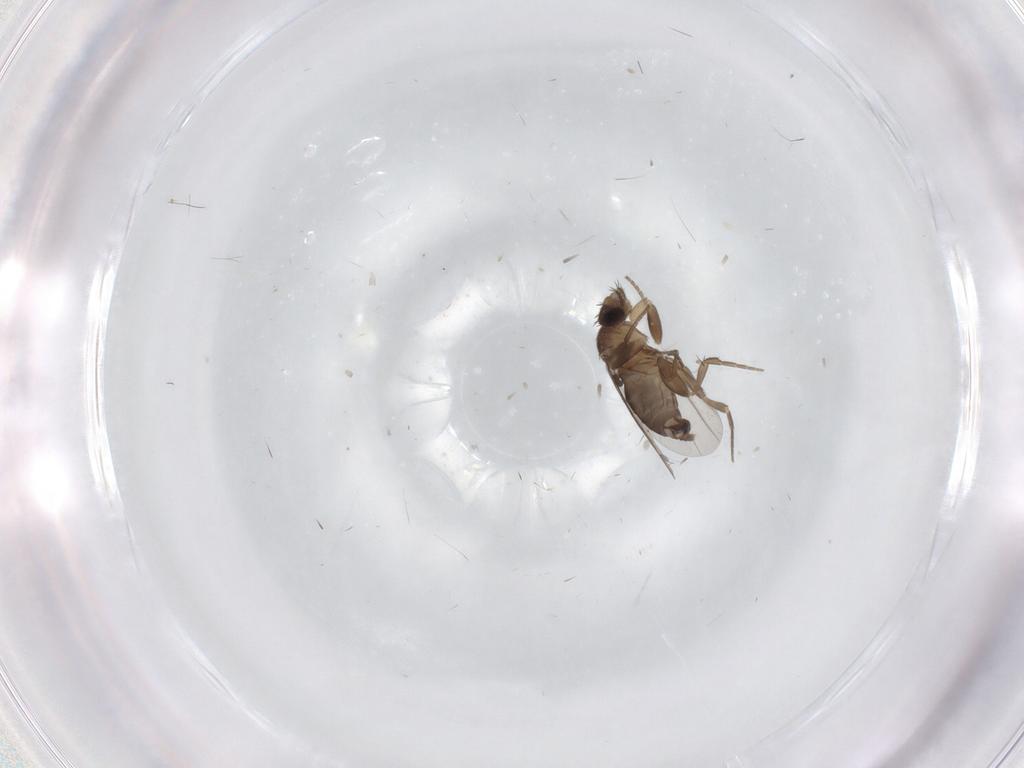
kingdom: Animalia
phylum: Arthropoda
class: Insecta
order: Diptera
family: Phoridae
